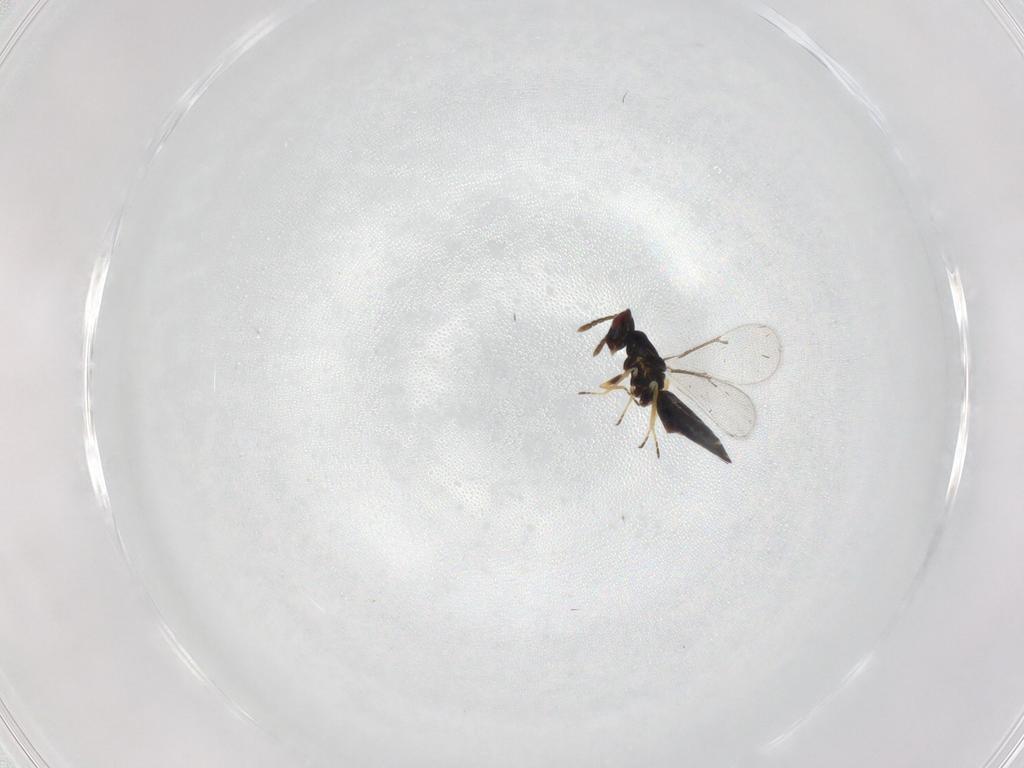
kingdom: Animalia
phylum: Arthropoda
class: Insecta
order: Hymenoptera
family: Eulophidae
